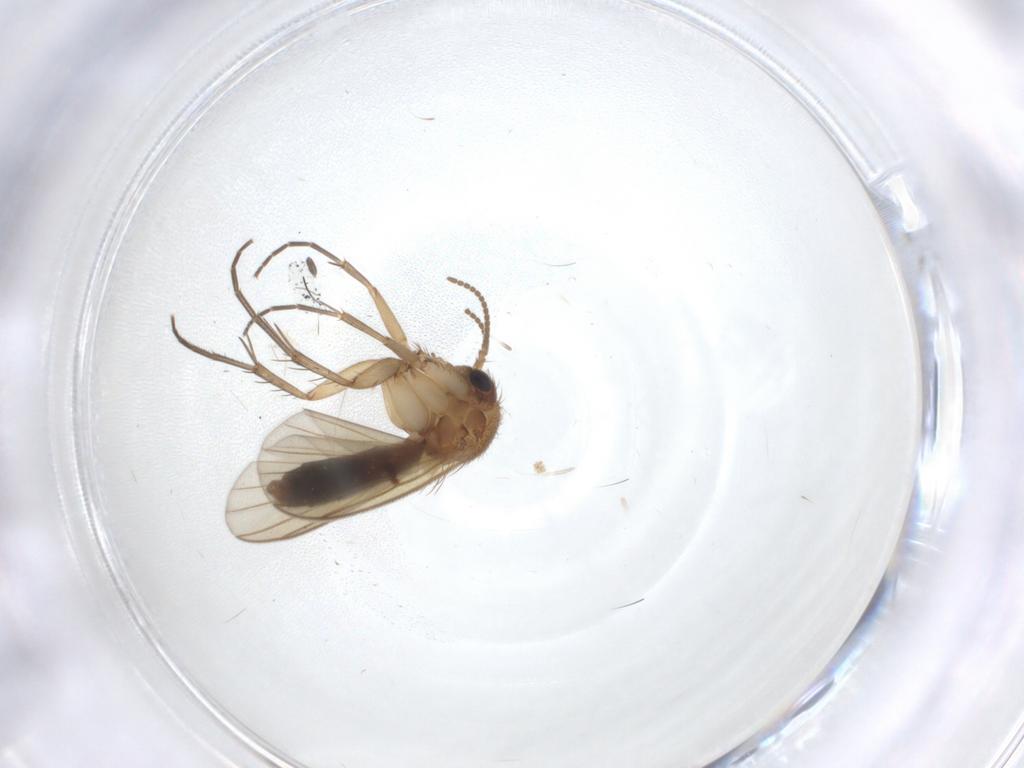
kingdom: Animalia
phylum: Arthropoda
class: Insecta
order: Diptera
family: Phoridae
